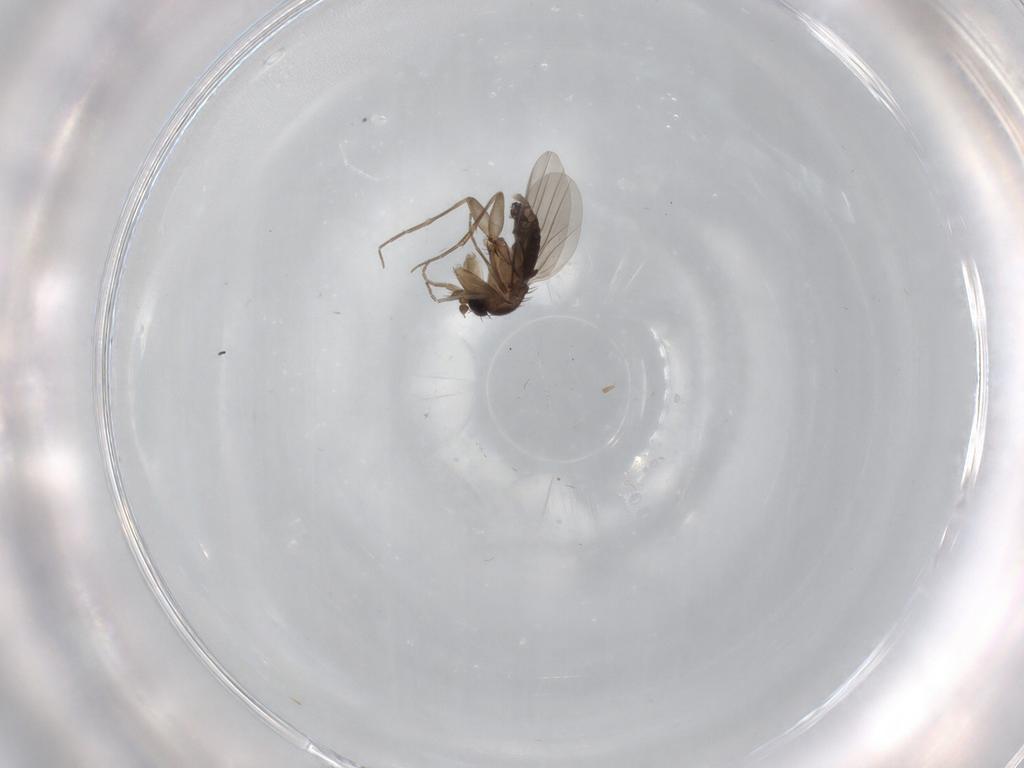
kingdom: Animalia
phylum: Arthropoda
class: Insecta
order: Diptera
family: Phoridae
